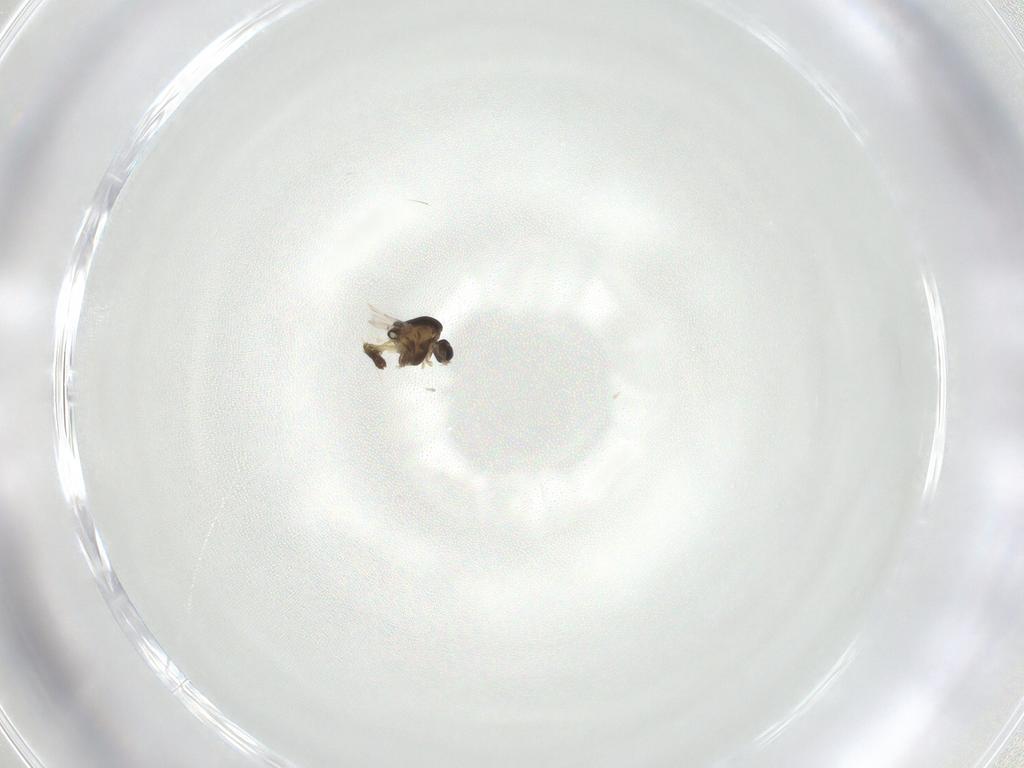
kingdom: Animalia
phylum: Arthropoda
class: Insecta
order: Diptera
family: Chironomidae
